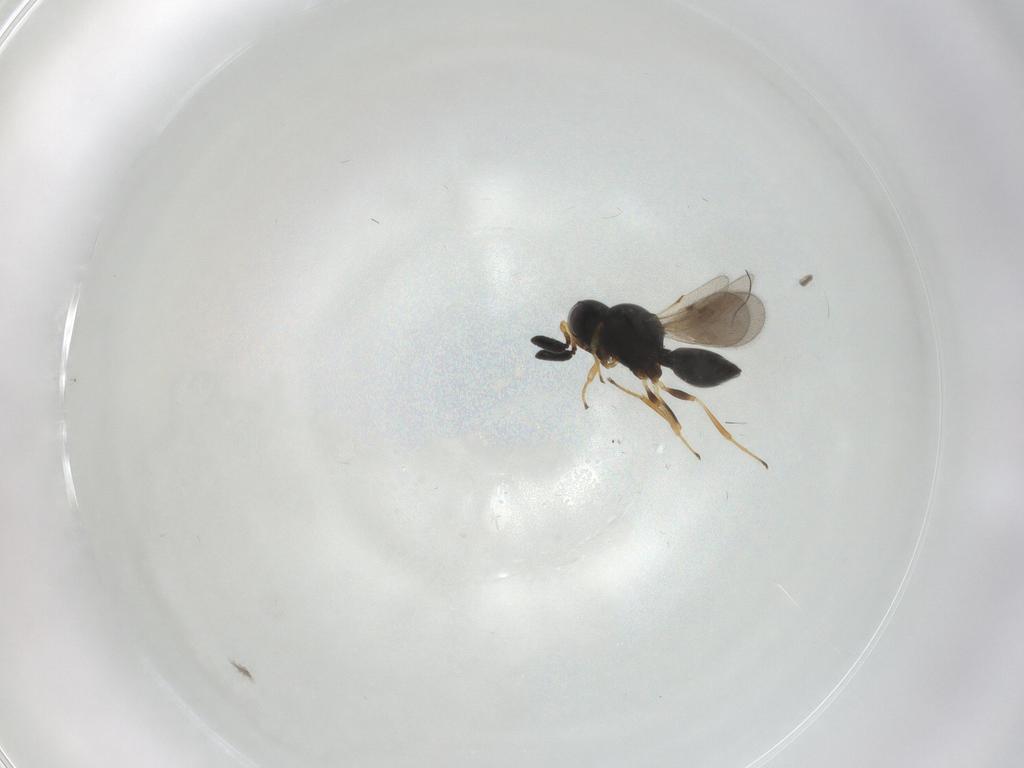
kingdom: Animalia
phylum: Arthropoda
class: Insecta
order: Hymenoptera
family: Scelionidae
